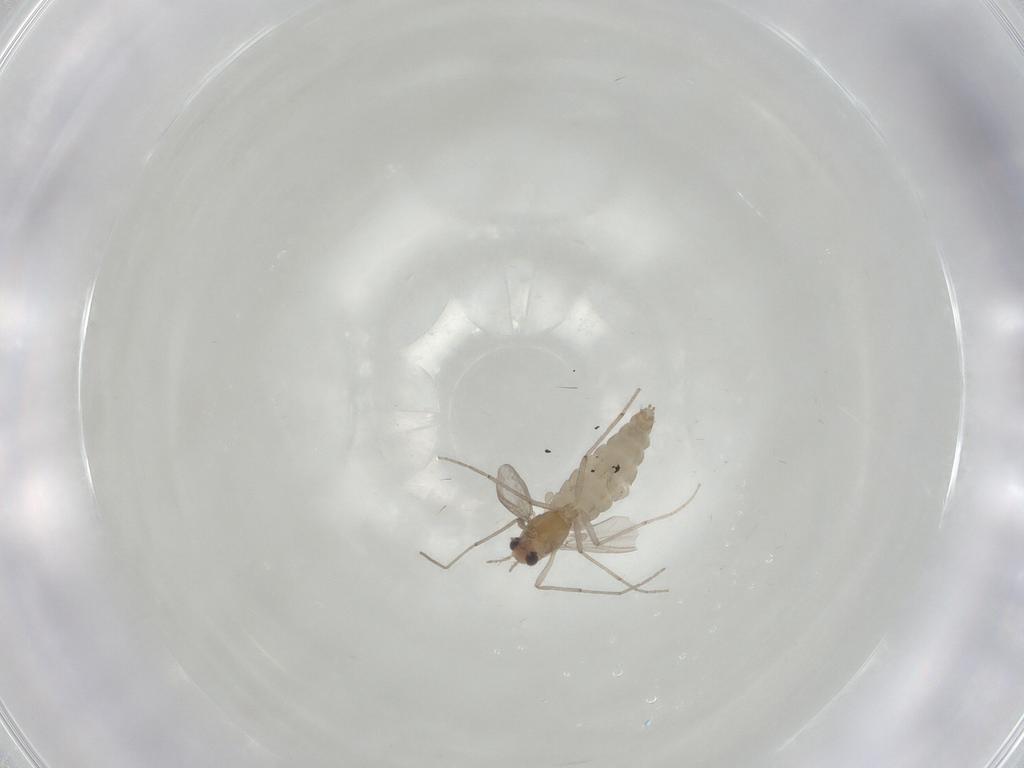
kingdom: Animalia
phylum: Arthropoda
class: Insecta
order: Diptera
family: Chironomidae
